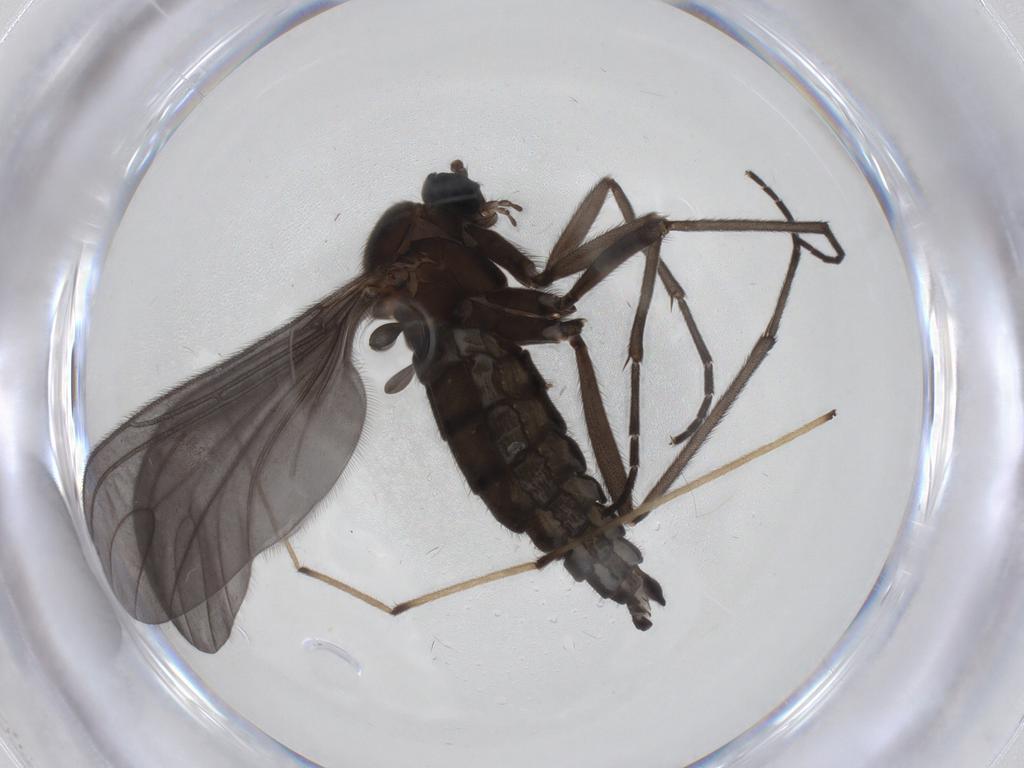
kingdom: Animalia
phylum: Arthropoda
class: Insecta
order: Diptera
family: Sciaridae
